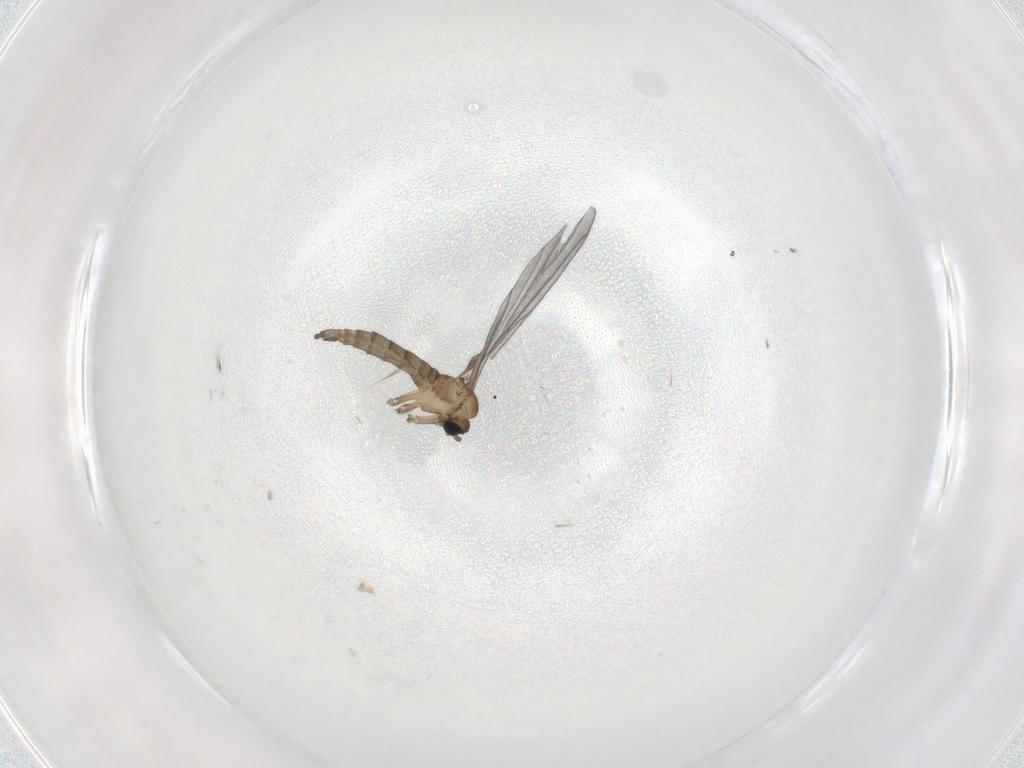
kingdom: Animalia
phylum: Arthropoda
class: Insecta
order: Diptera
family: Sciaridae
